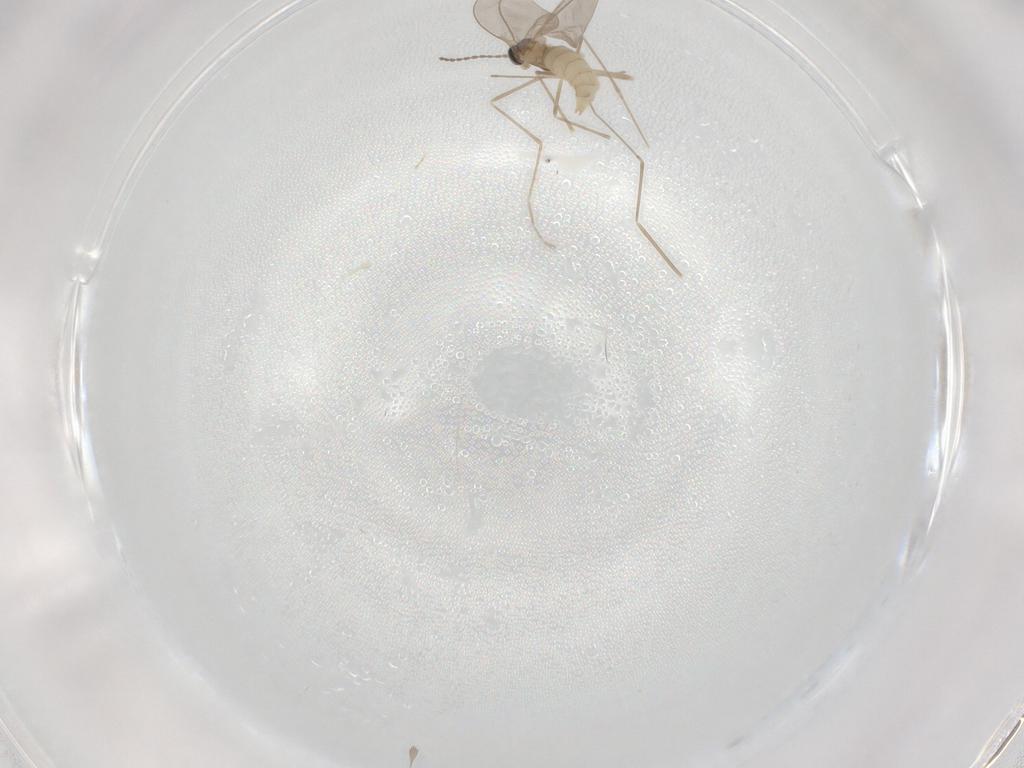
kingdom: Animalia
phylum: Arthropoda
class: Insecta
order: Diptera
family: Cecidomyiidae
